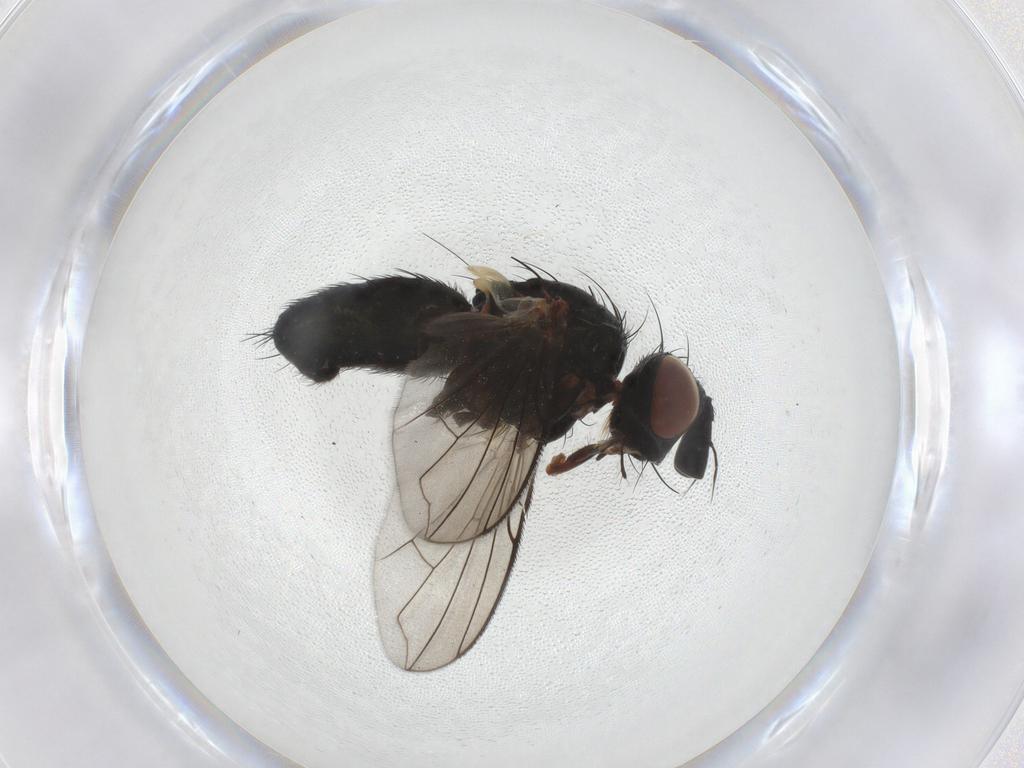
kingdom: Animalia
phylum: Arthropoda
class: Insecta
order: Diptera
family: Tachinidae
